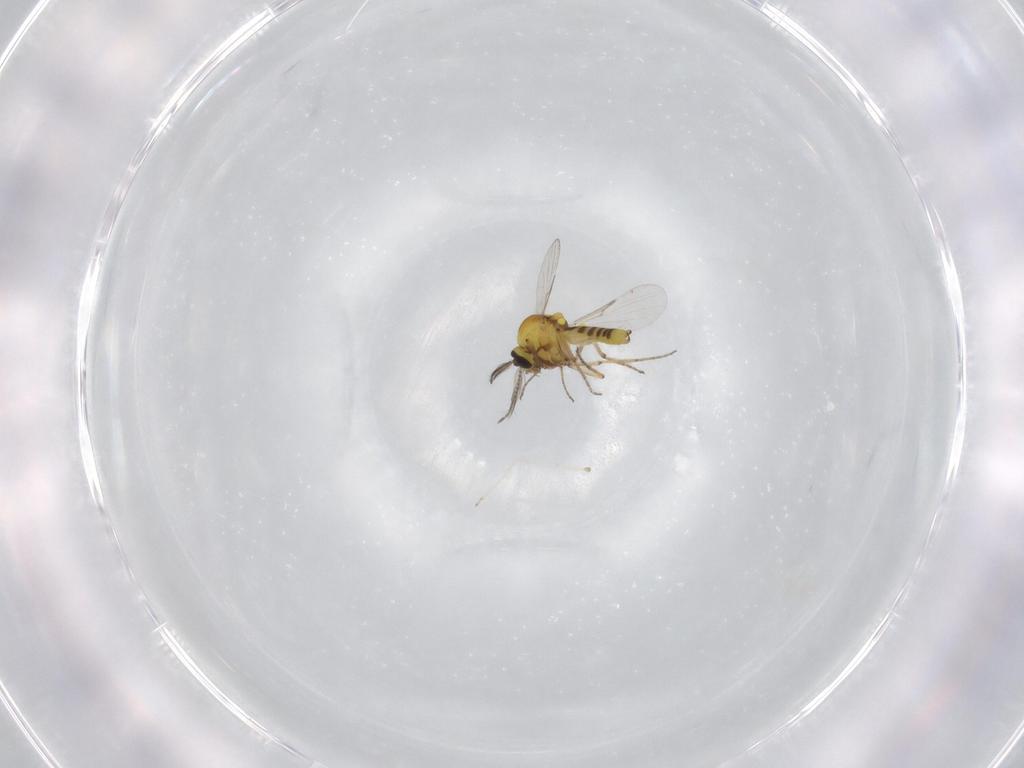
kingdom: Animalia
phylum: Arthropoda
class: Insecta
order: Diptera
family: Ceratopogonidae
